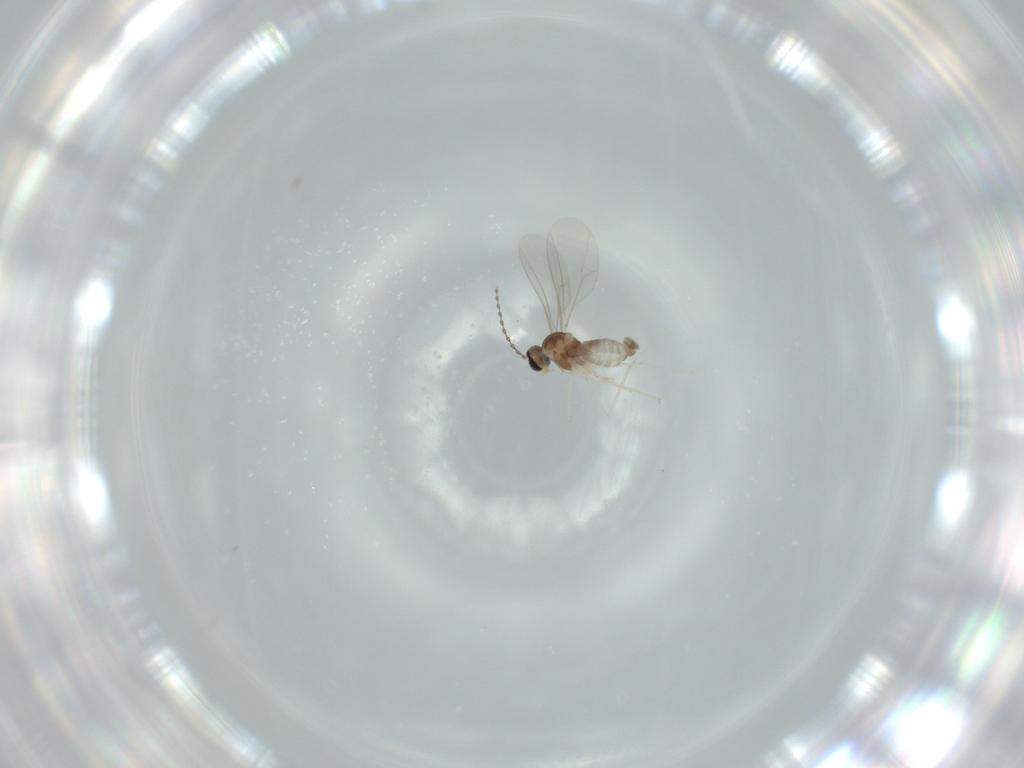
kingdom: Animalia
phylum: Arthropoda
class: Insecta
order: Diptera
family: Cecidomyiidae
